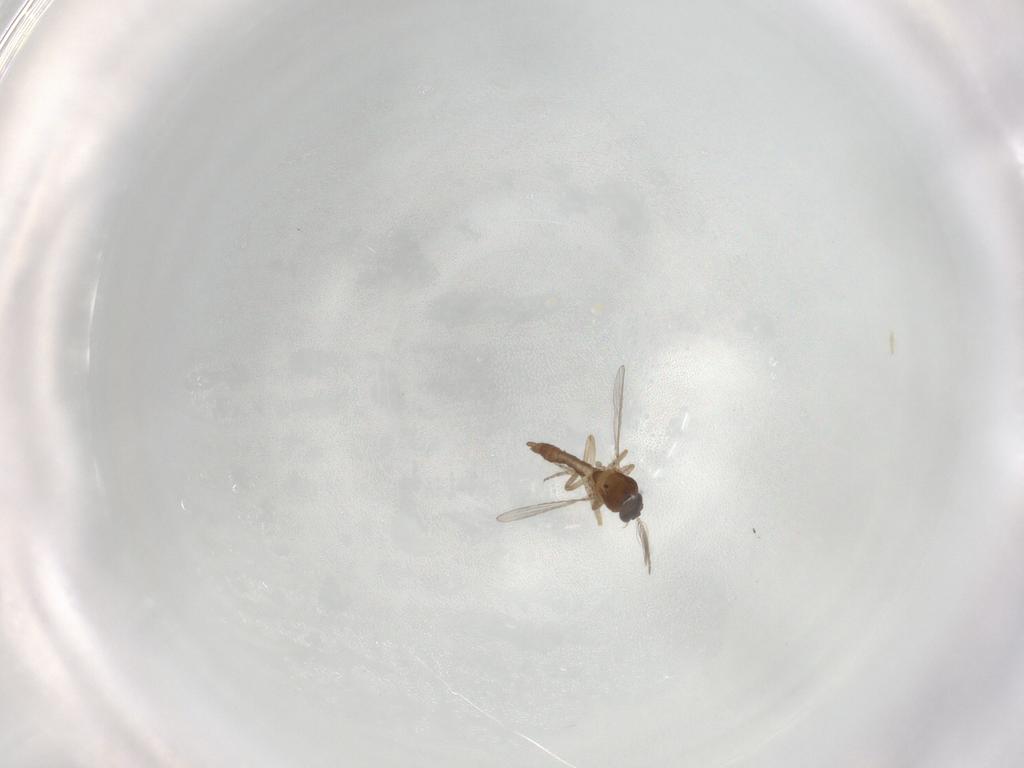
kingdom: Animalia
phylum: Arthropoda
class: Insecta
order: Diptera
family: Ceratopogonidae
